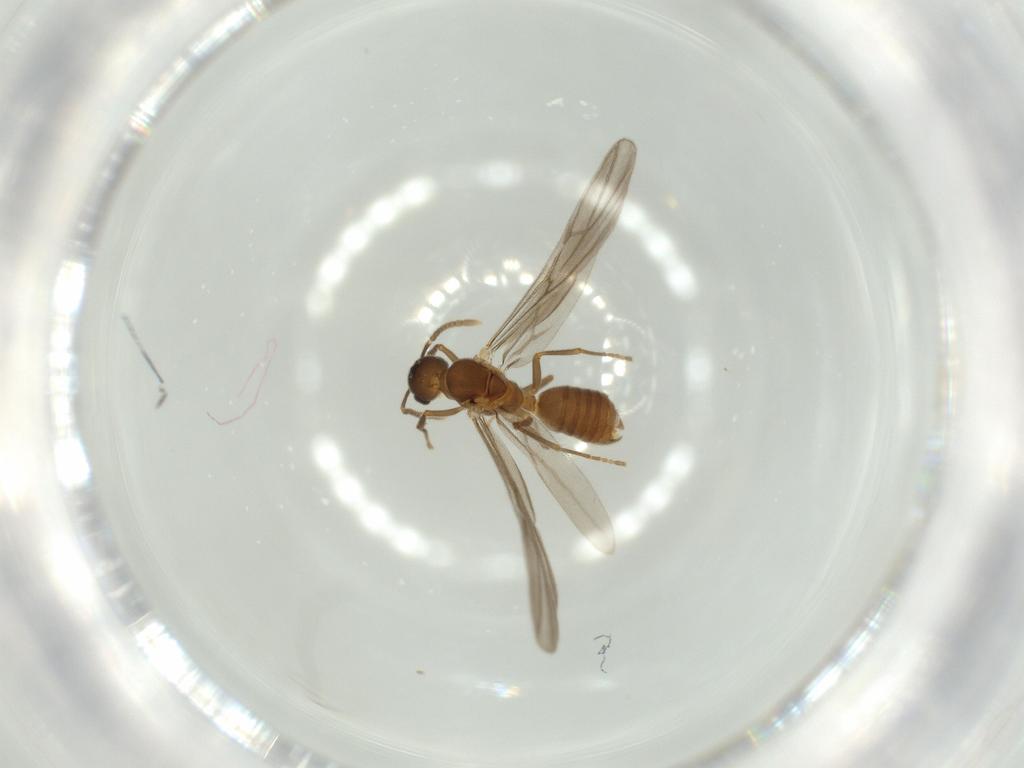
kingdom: Animalia
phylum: Arthropoda
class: Insecta
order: Hymenoptera
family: Formicidae
